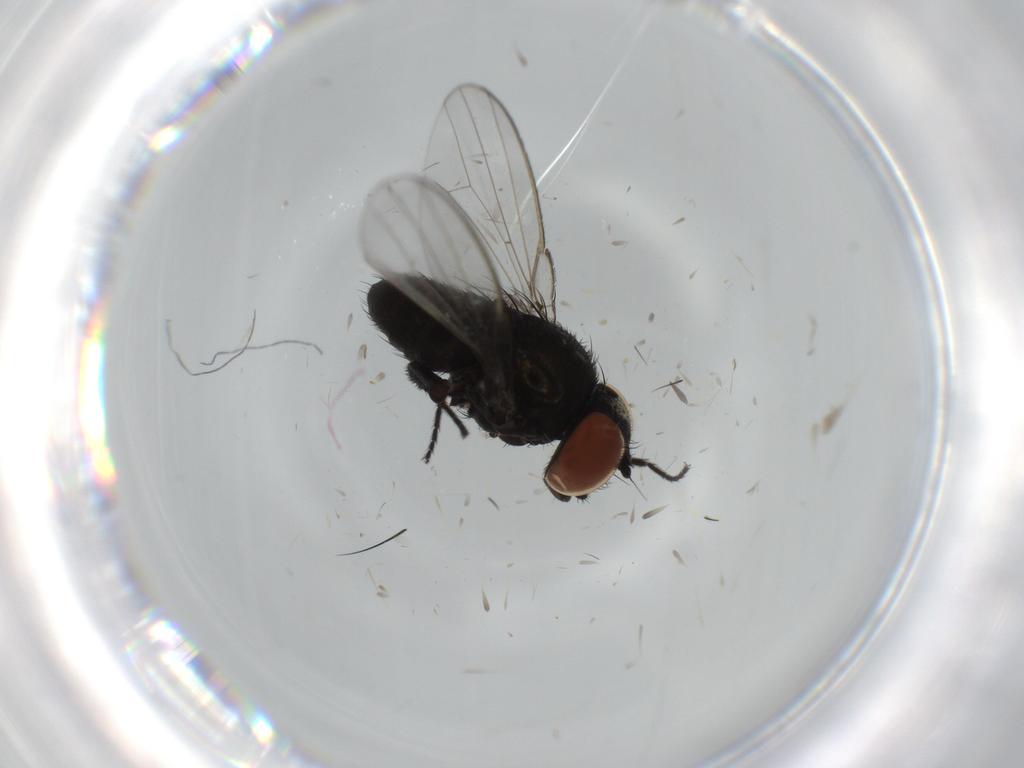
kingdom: Animalia
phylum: Arthropoda
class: Insecta
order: Diptera
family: Milichiidae
